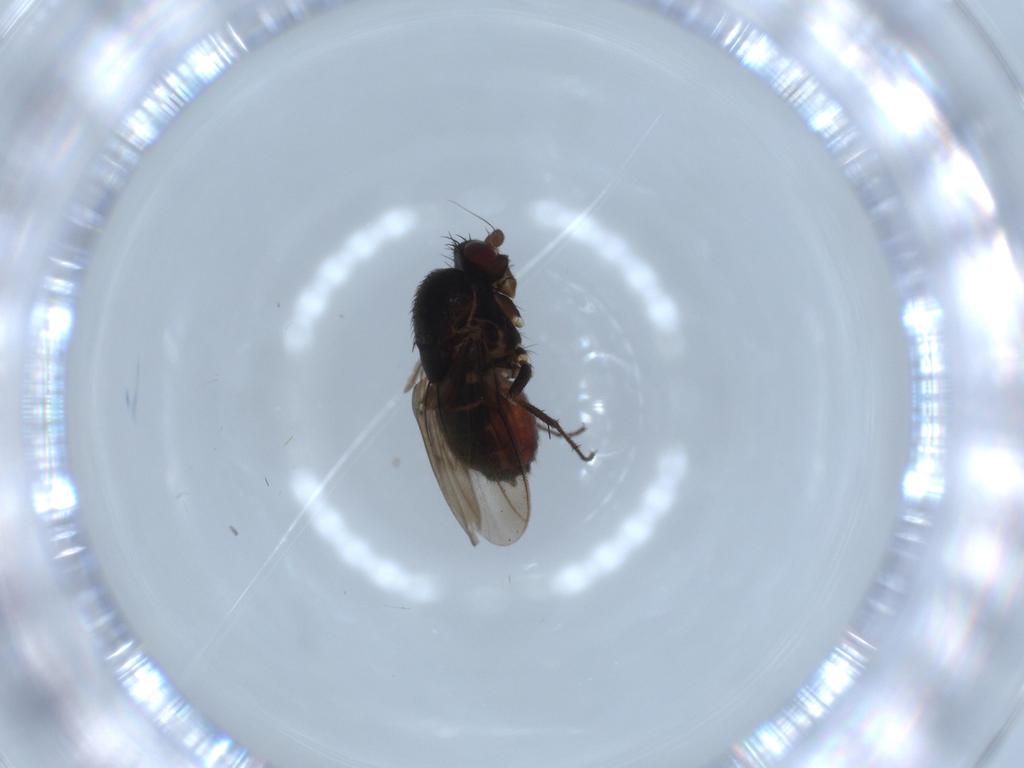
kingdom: Animalia
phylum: Arthropoda
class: Insecta
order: Diptera
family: Sphaeroceridae
